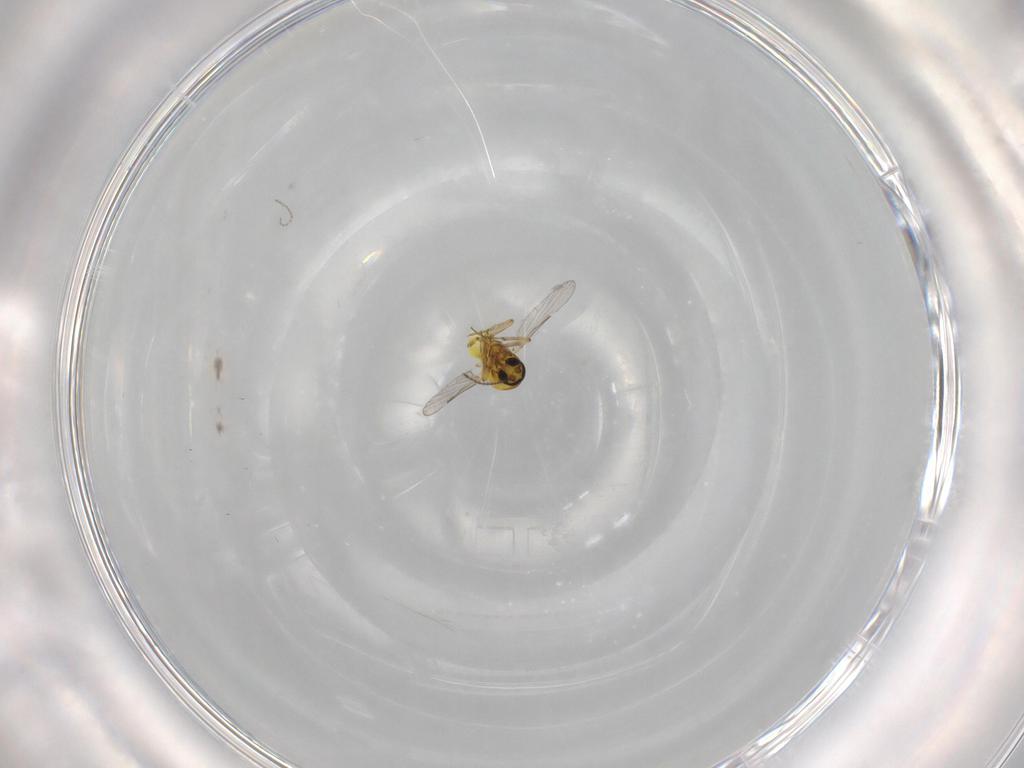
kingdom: Animalia
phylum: Arthropoda
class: Insecta
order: Diptera
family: Ceratopogonidae
